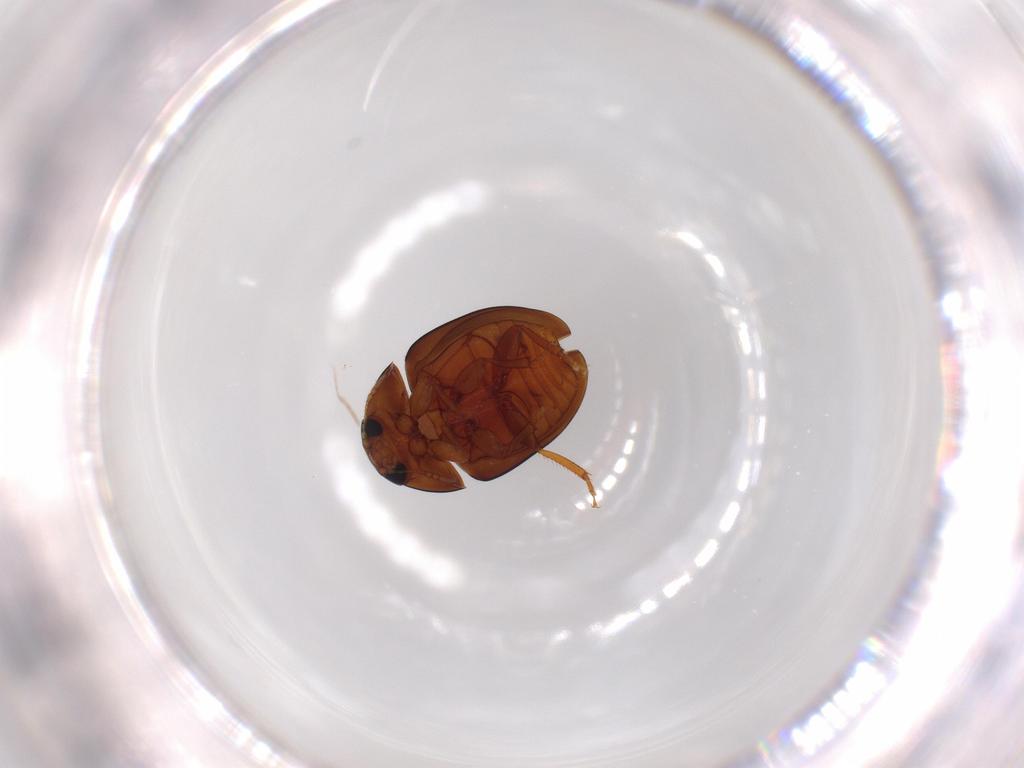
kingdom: Animalia
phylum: Arthropoda
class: Insecta
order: Coleoptera
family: Phalacridae
